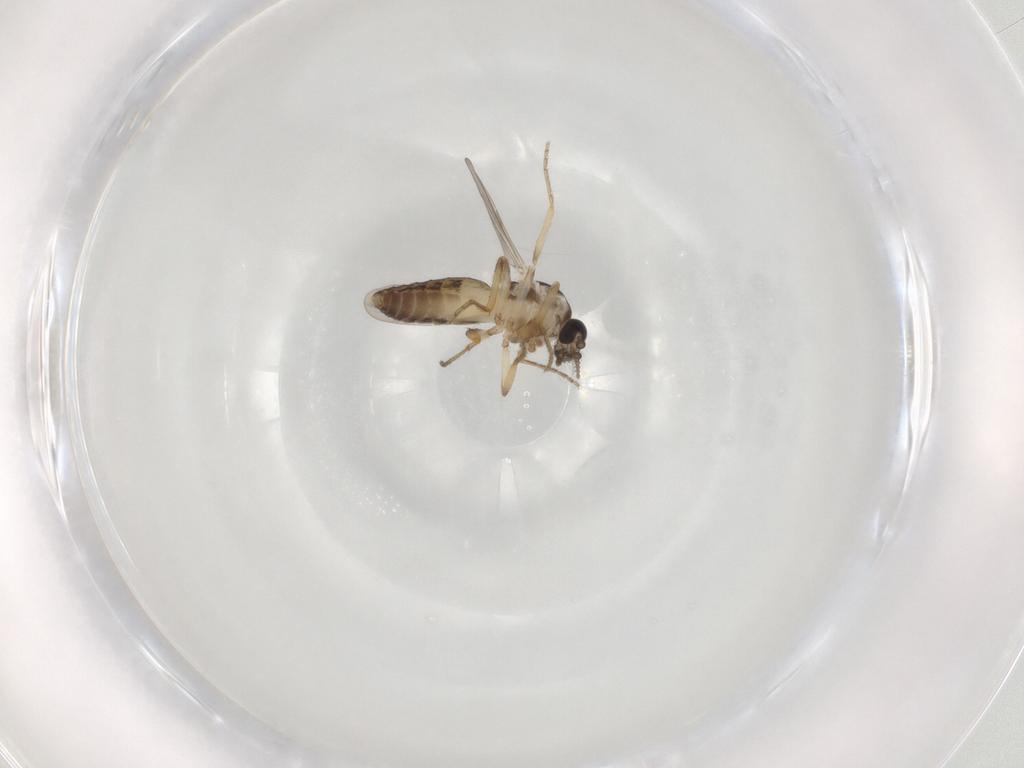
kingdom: Animalia
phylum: Arthropoda
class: Insecta
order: Diptera
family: Ceratopogonidae
